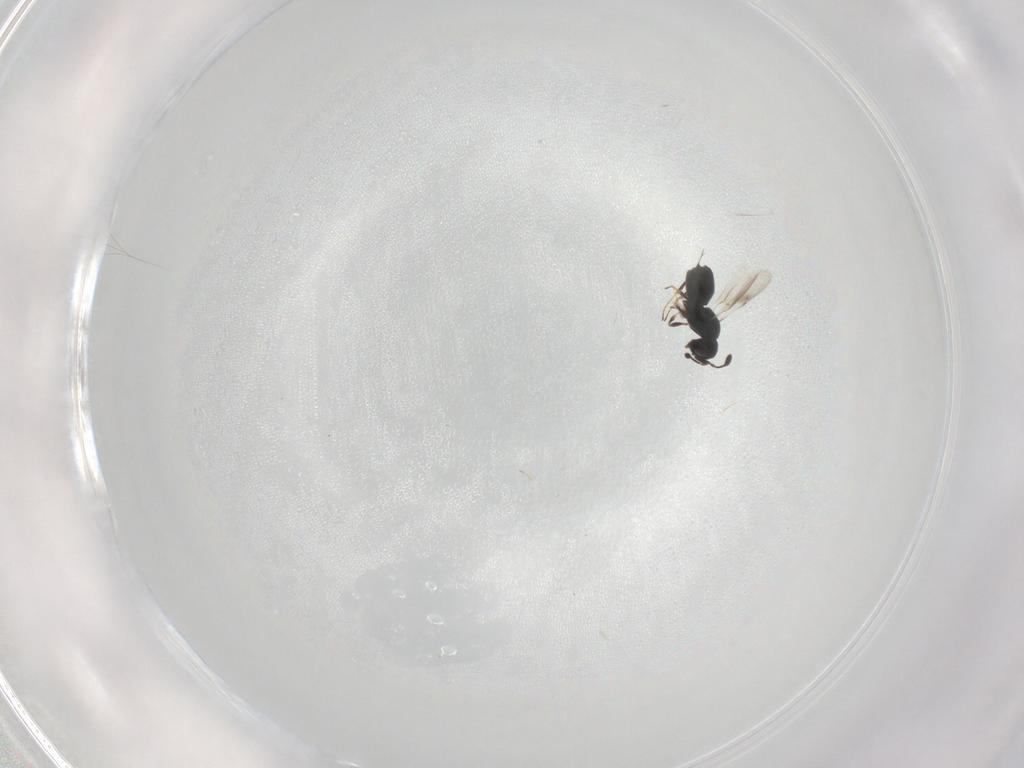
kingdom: Animalia
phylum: Arthropoda
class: Insecta
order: Hymenoptera
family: Scelionidae
